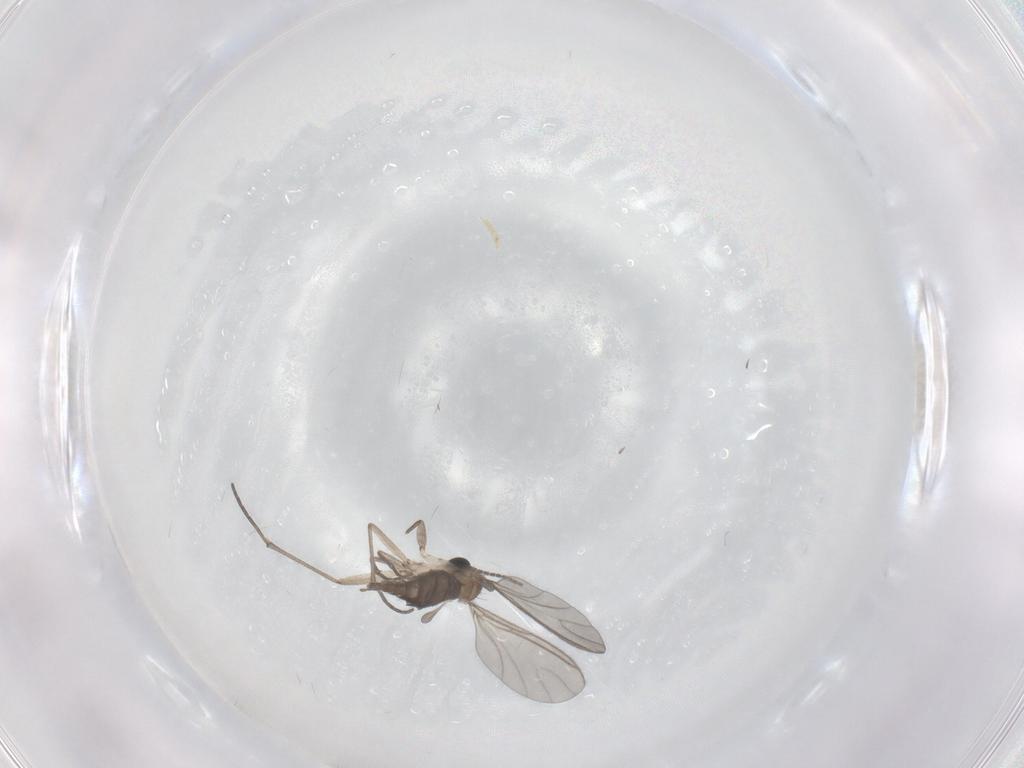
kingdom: Animalia
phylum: Arthropoda
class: Insecta
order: Diptera
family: Sciaridae
